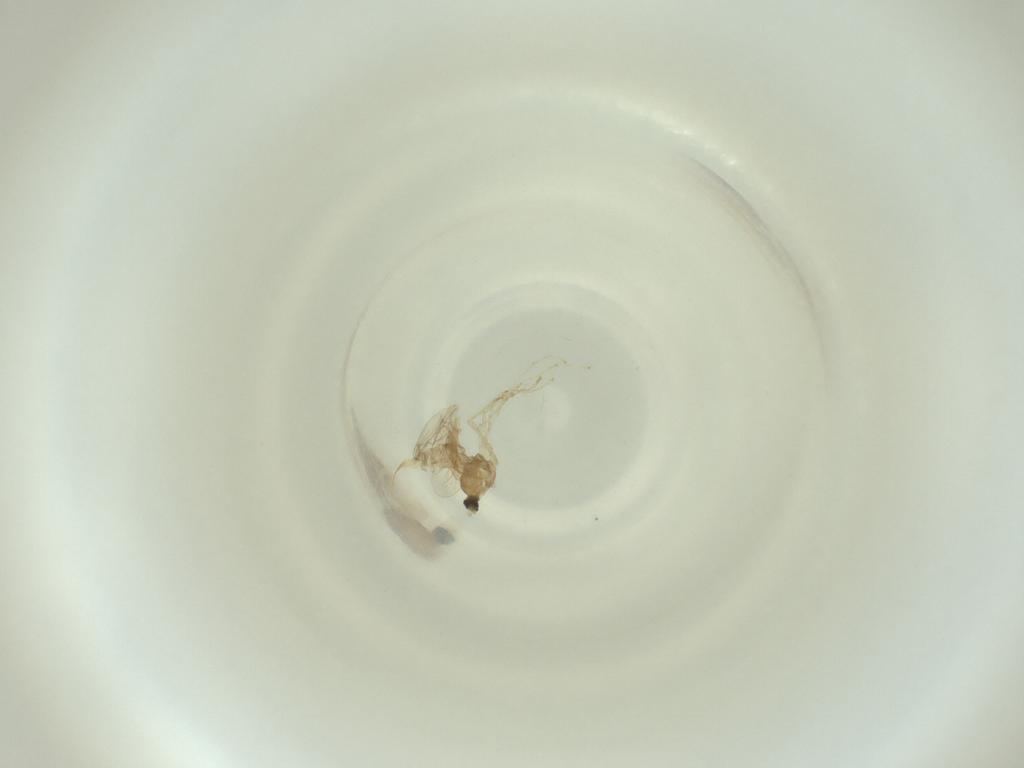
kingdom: Animalia
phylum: Arthropoda
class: Insecta
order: Diptera
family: Cecidomyiidae
